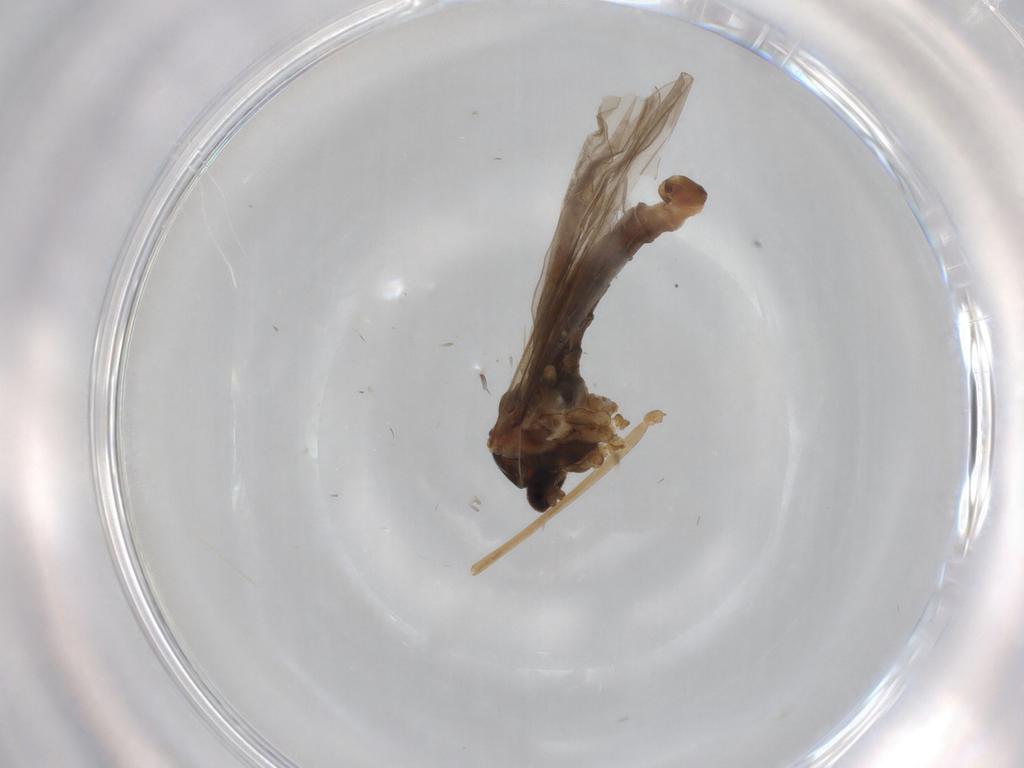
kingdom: Animalia
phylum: Arthropoda
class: Insecta
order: Diptera
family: Cecidomyiidae
